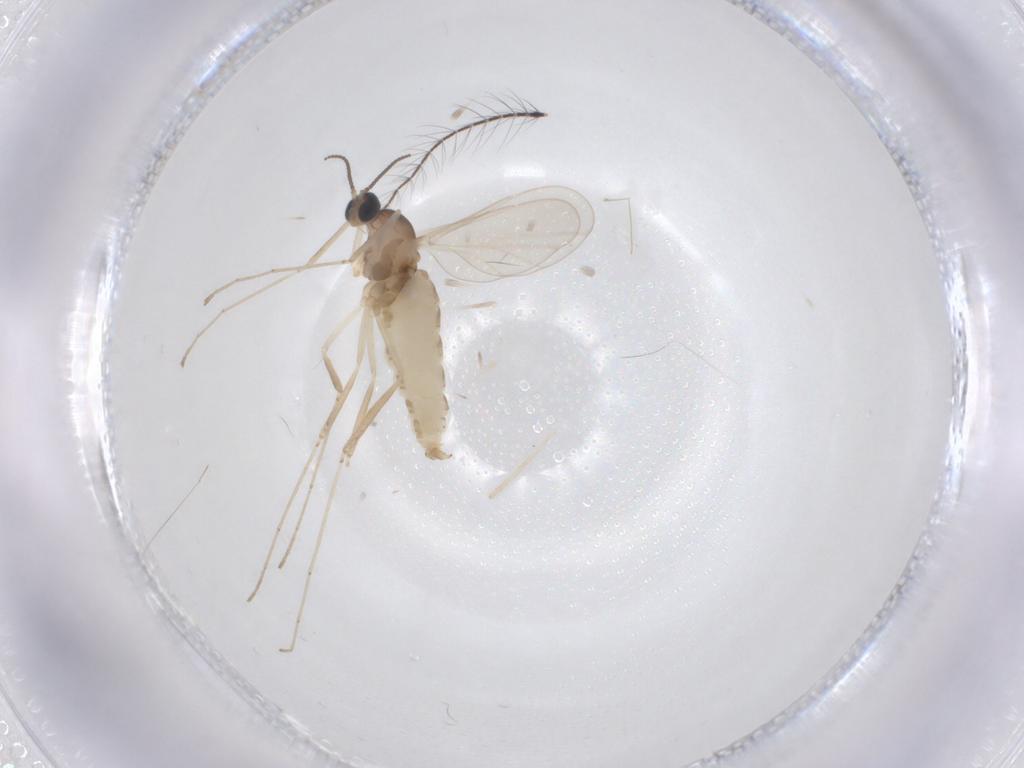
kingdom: Animalia
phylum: Arthropoda
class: Insecta
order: Diptera
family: Cecidomyiidae
